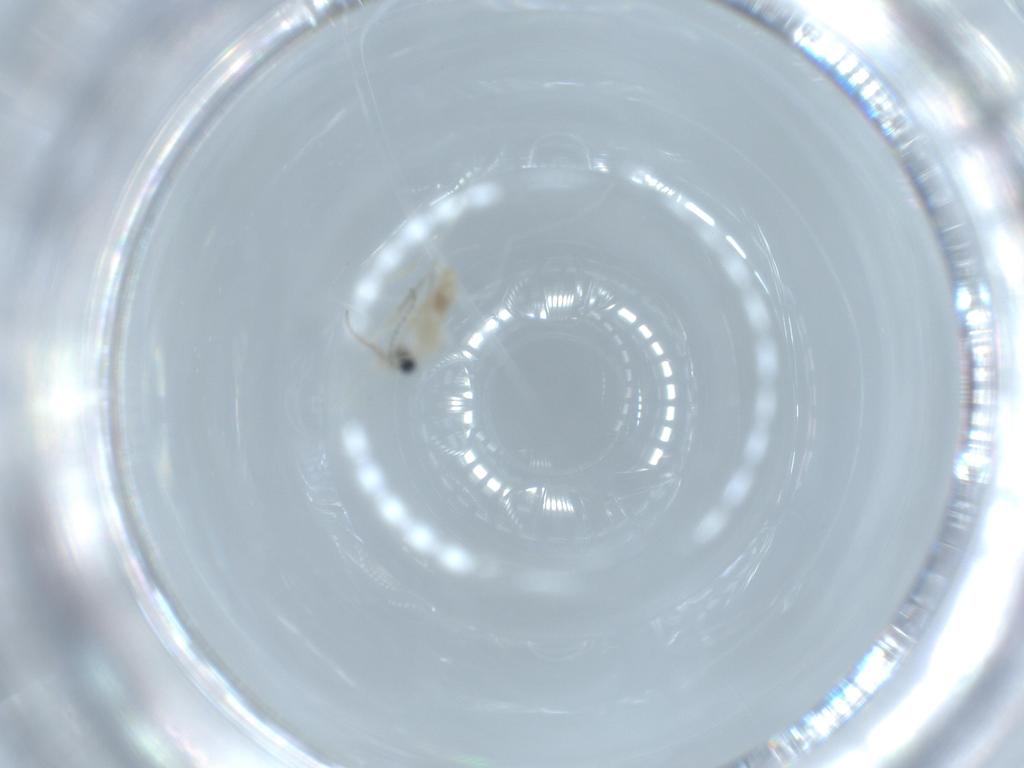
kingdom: Animalia
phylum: Arthropoda
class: Insecta
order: Diptera
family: Cecidomyiidae
